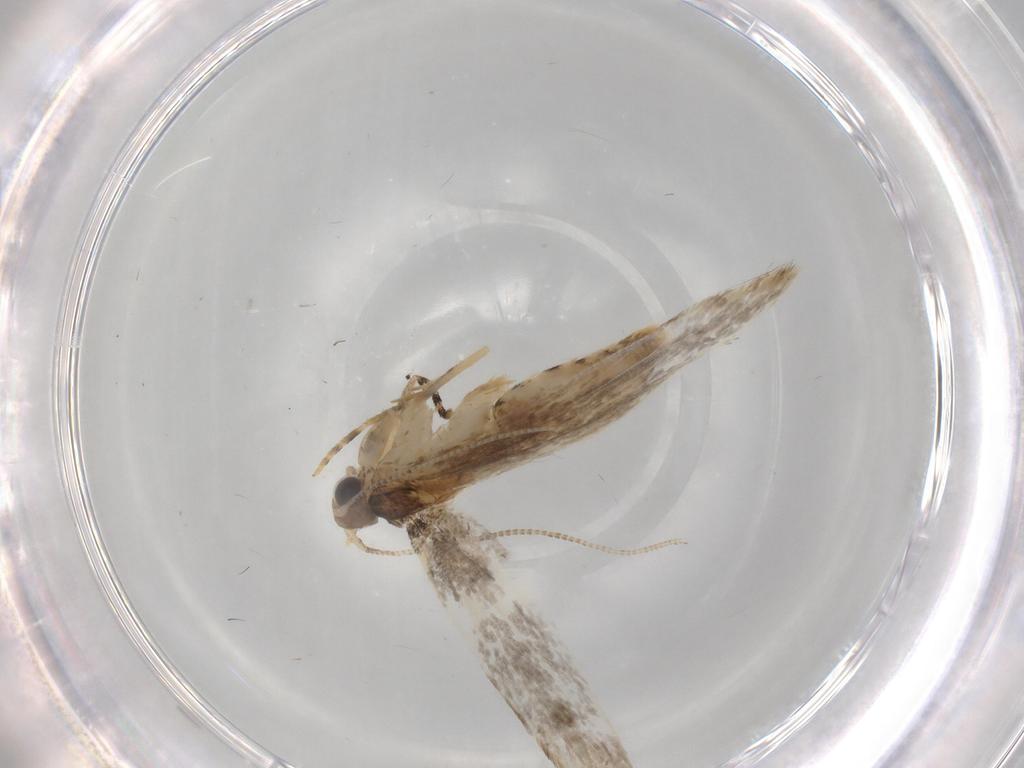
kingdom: Animalia
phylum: Arthropoda
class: Insecta
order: Lepidoptera
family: Tineidae
